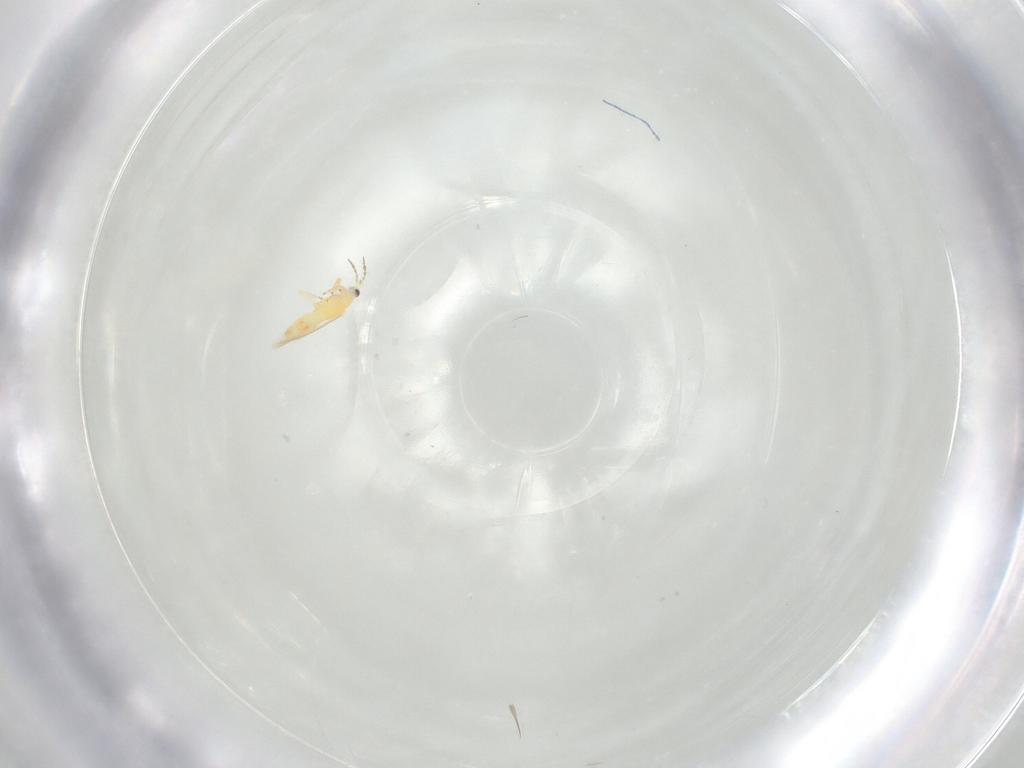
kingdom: Animalia
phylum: Arthropoda
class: Insecta
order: Thysanoptera
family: Melanthripidae
